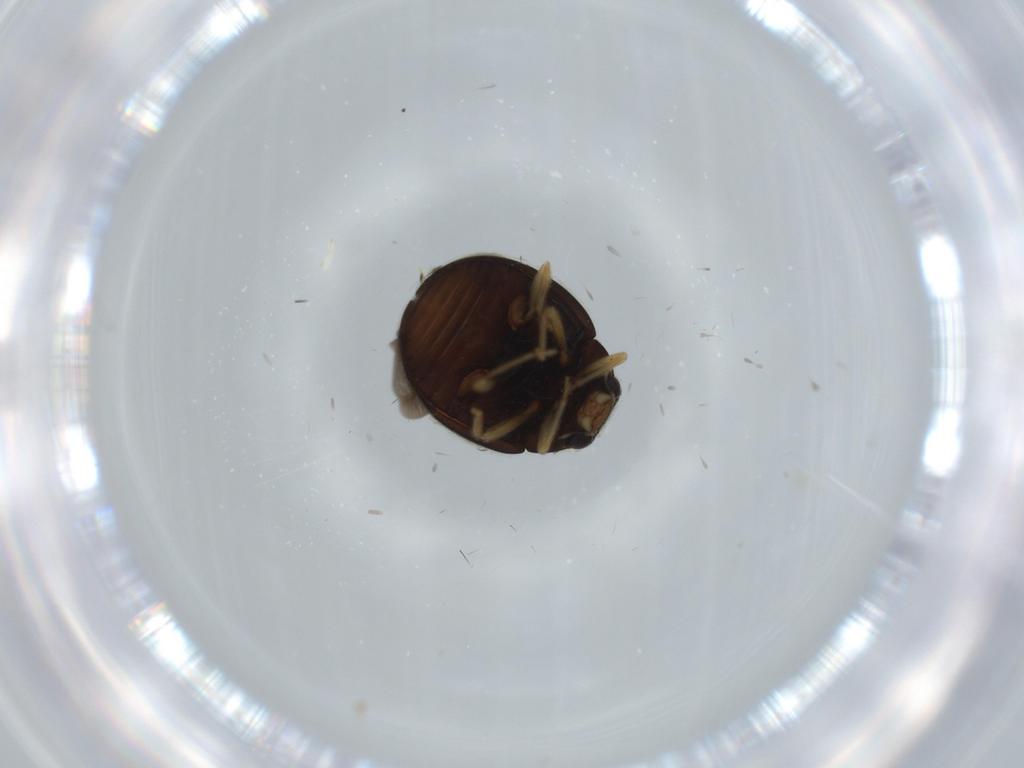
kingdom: Animalia
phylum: Arthropoda
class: Insecta
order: Coleoptera
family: Coccinellidae
